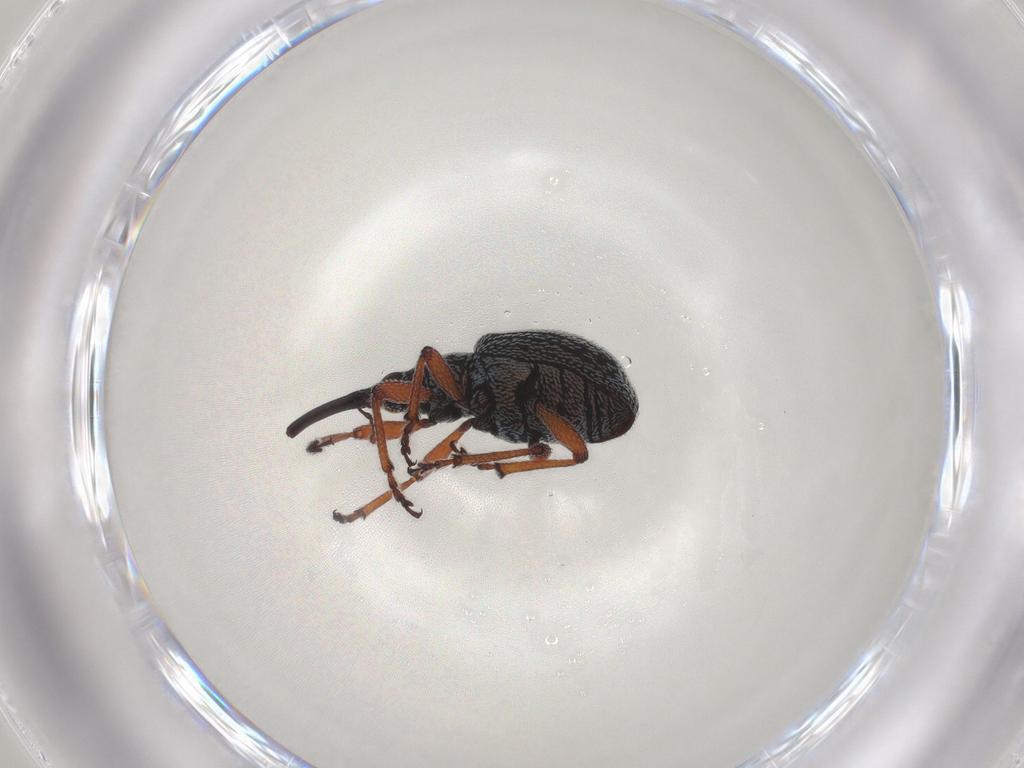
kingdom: Animalia
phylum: Arthropoda
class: Insecta
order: Coleoptera
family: Brentidae
